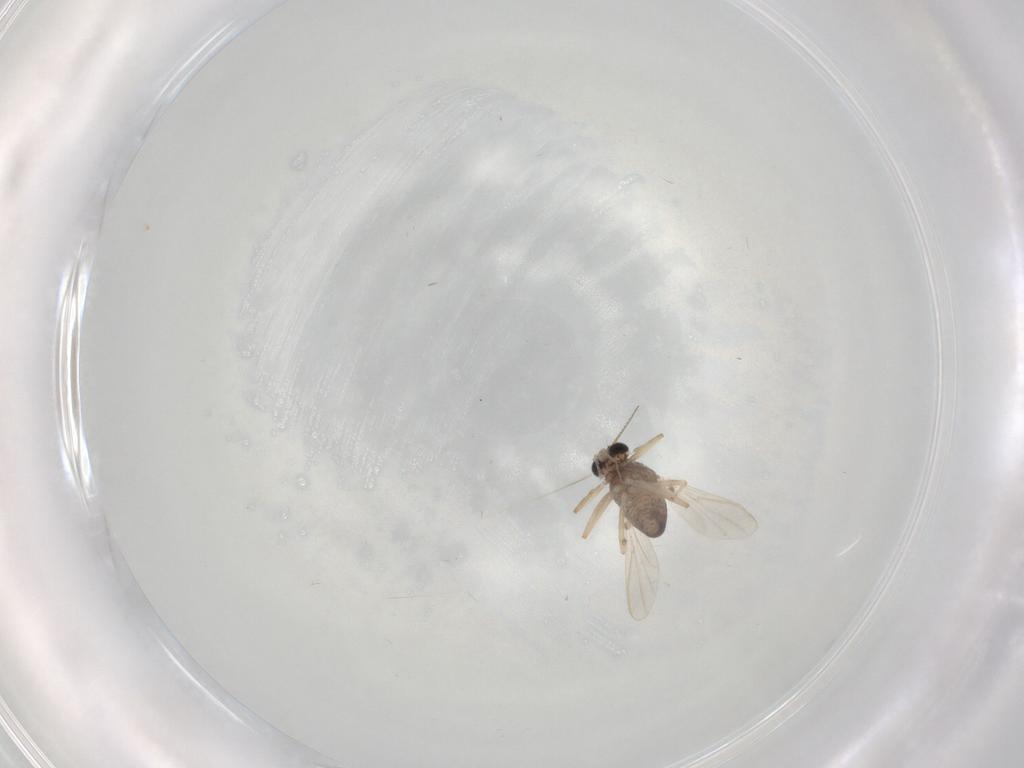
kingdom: Animalia
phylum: Arthropoda
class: Insecta
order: Diptera
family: Chironomidae
